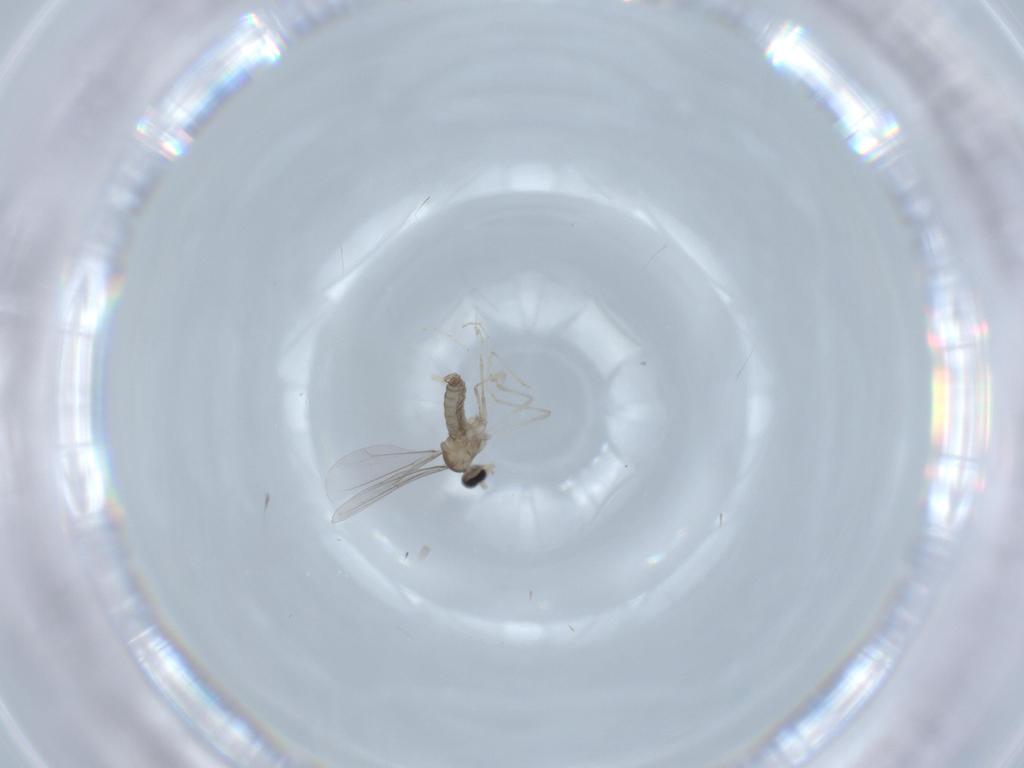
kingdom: Animalia
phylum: Arthropoda
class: Insecta
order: Diptera
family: Cecidomyiidae
